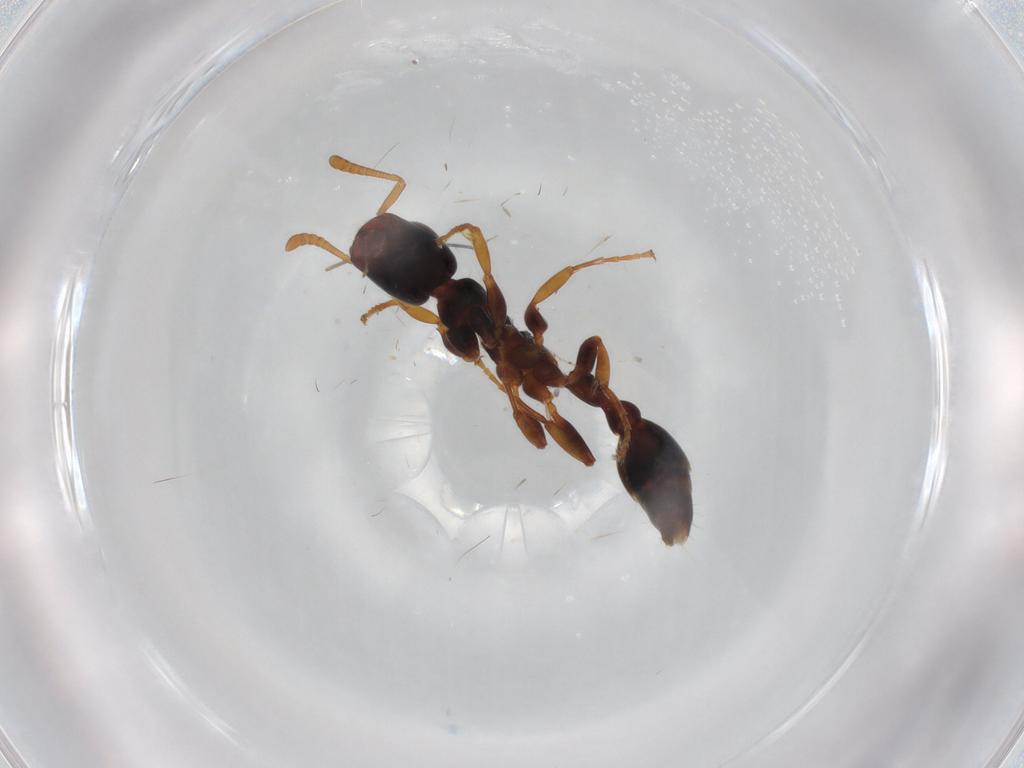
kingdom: Animalia
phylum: Arthropoda
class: Insecta
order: Hymenoptera
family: Formicidae
